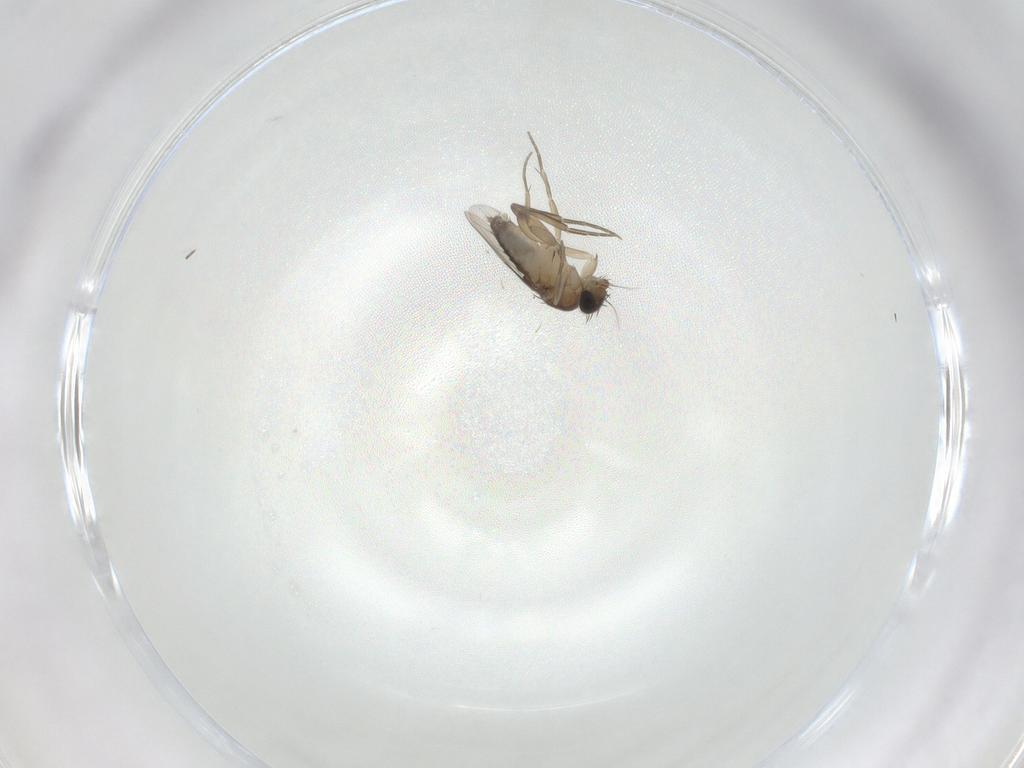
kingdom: Animalia
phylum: Arthropoda
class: Insecta
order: Diptera
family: Phoridae
